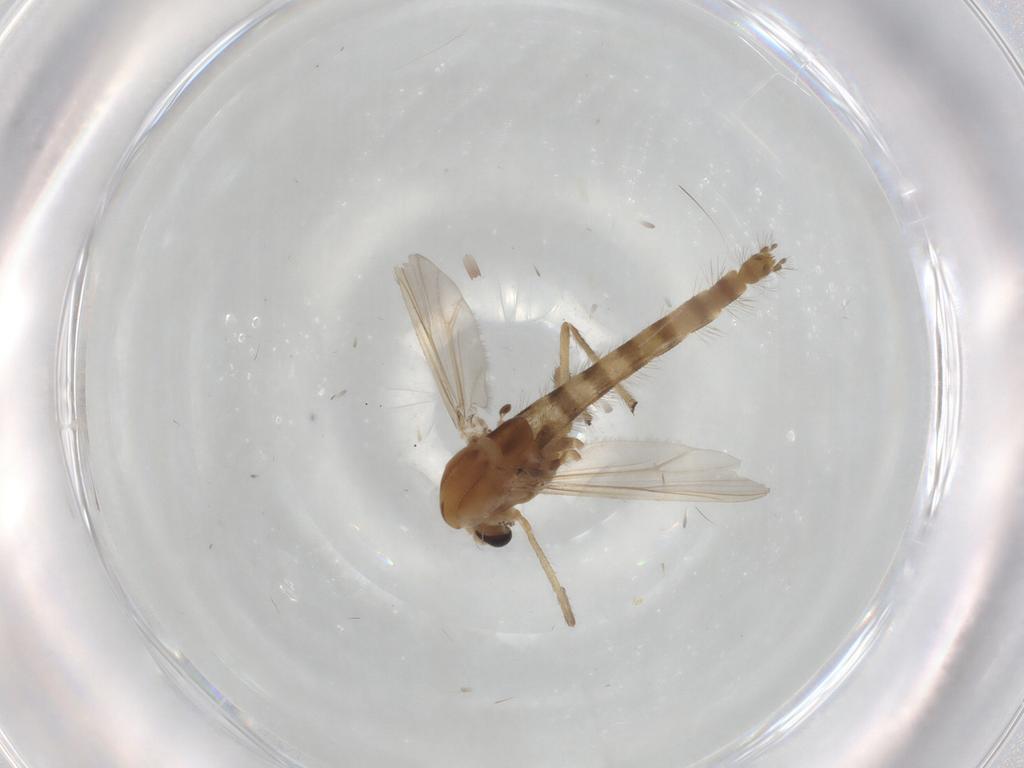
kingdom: Animalia
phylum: Arthropoda
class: Insecta
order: Diptera
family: Chironomidae
